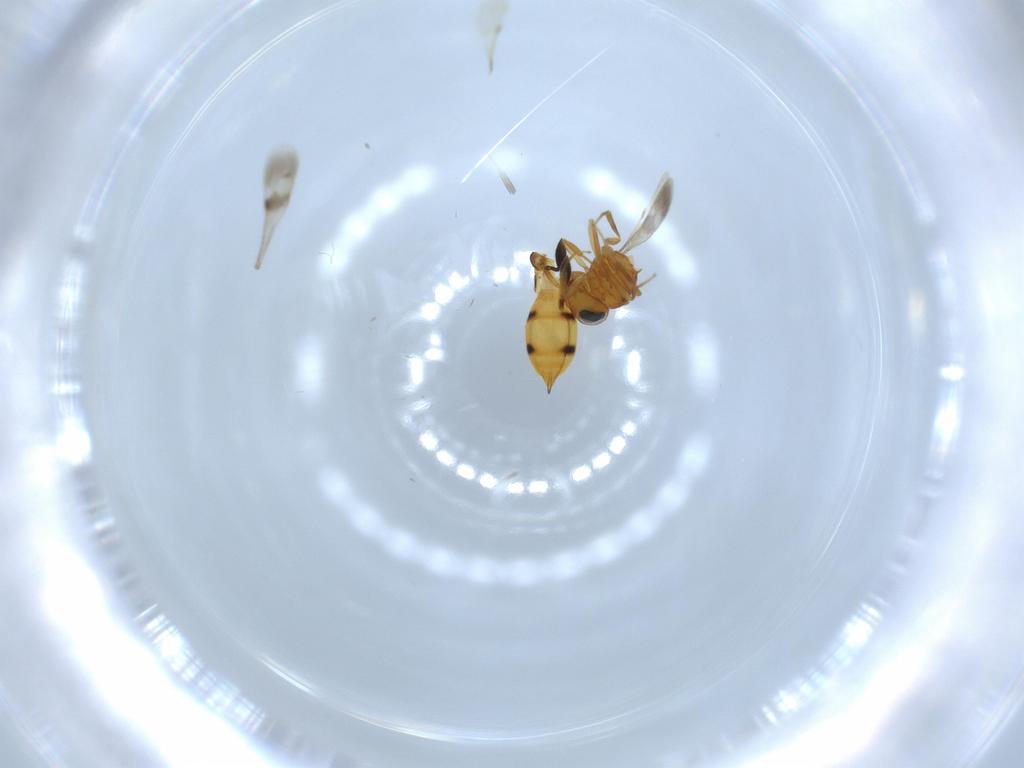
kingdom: Animalia
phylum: Arthropoda
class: Insecta
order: Hymenoptera
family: Scelionidae
